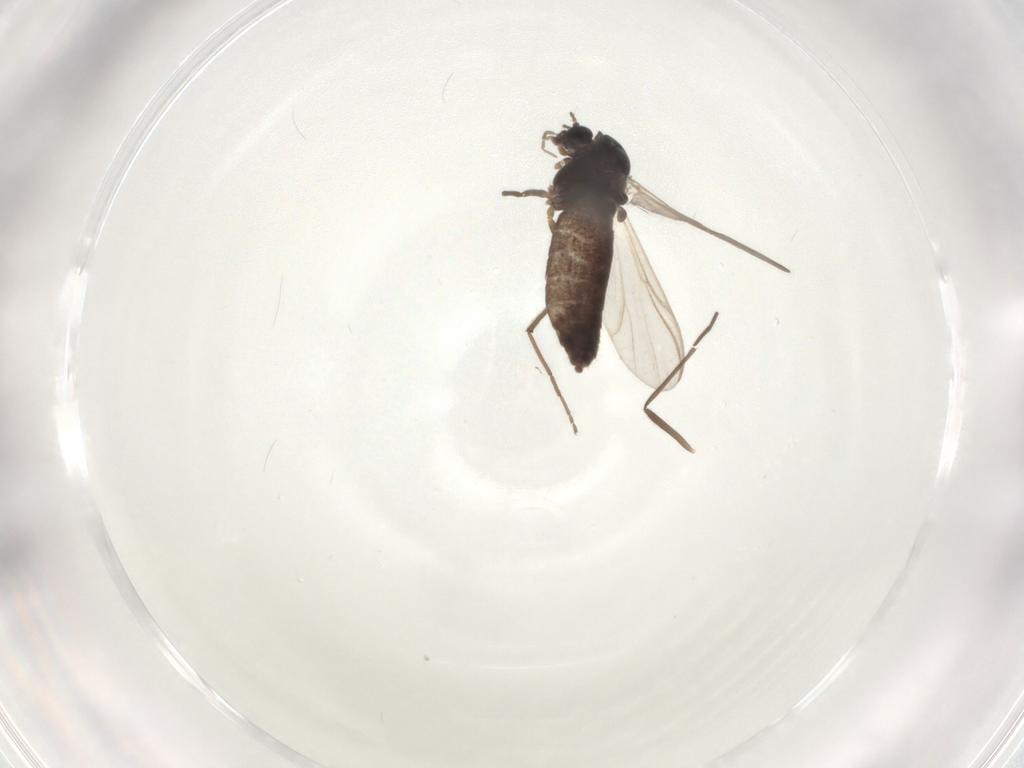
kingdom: Animalia
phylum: Arthropoda
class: Insecta
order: Diptera
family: Chironomidae
